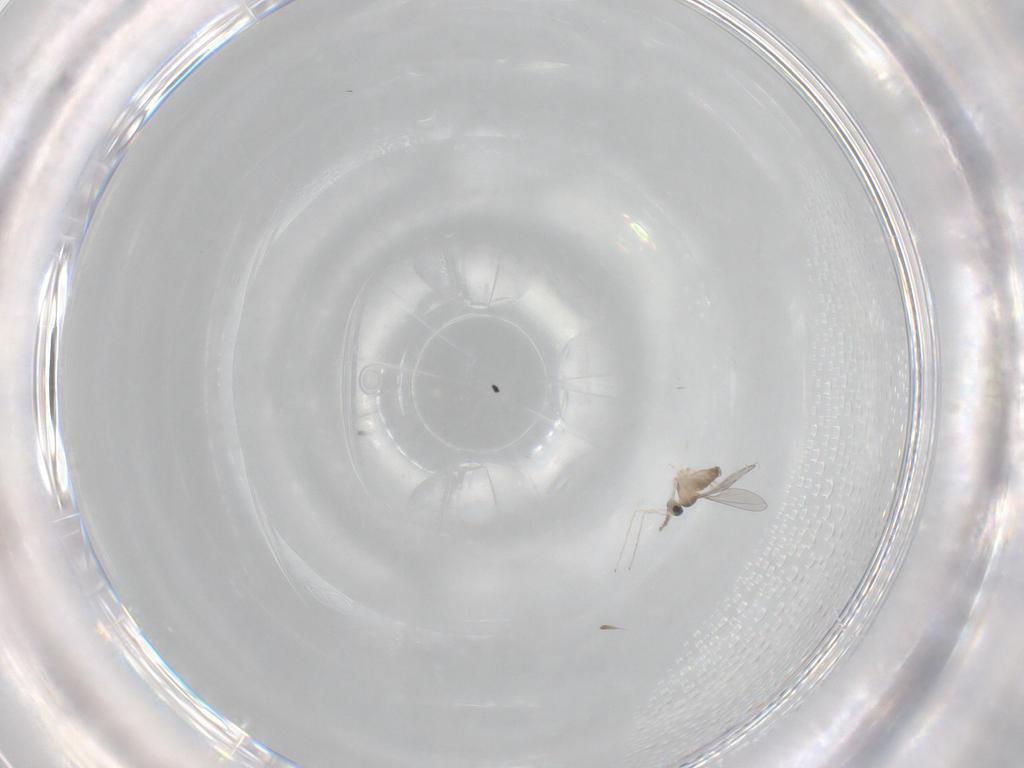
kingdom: Animalia
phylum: Arthropoda
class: Insecta
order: Diptera
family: Cecidomyiidae
